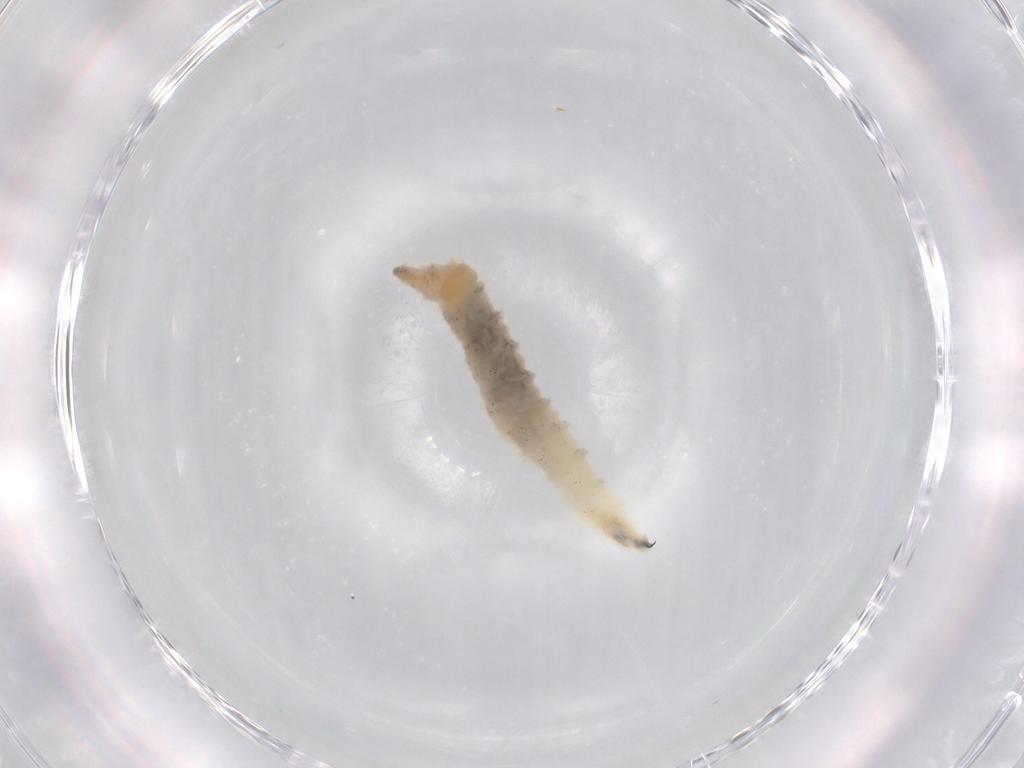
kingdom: Animalia
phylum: Arthropoda
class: Insecta
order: Diptera
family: Drosophilidae
